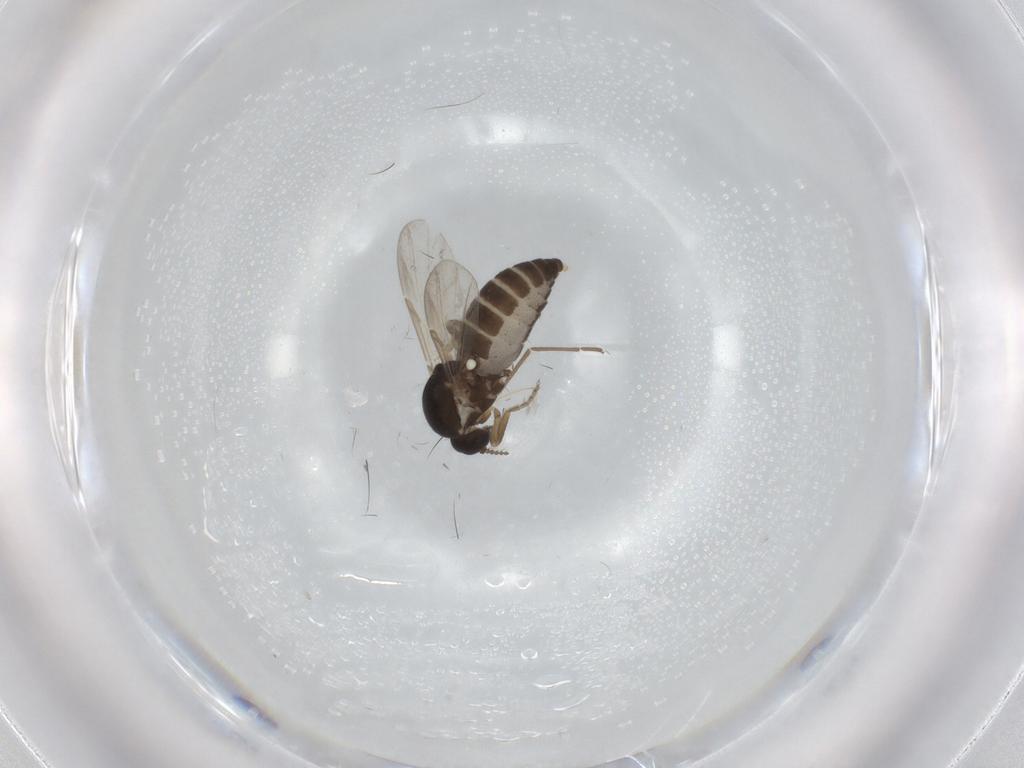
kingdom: Animalia
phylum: Arthropoda
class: Insecta
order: Diptera
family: Ceratopogonidae
